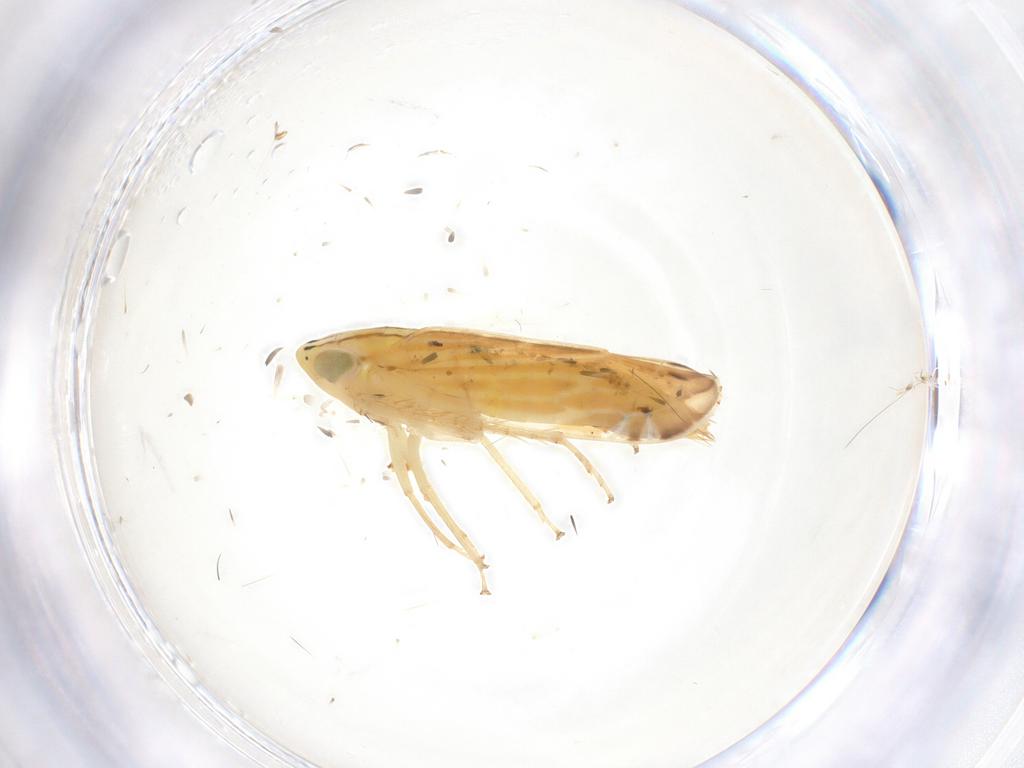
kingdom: Animalia
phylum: Arthropoda
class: Insecta
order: Hemiptera
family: Cicadellidae
